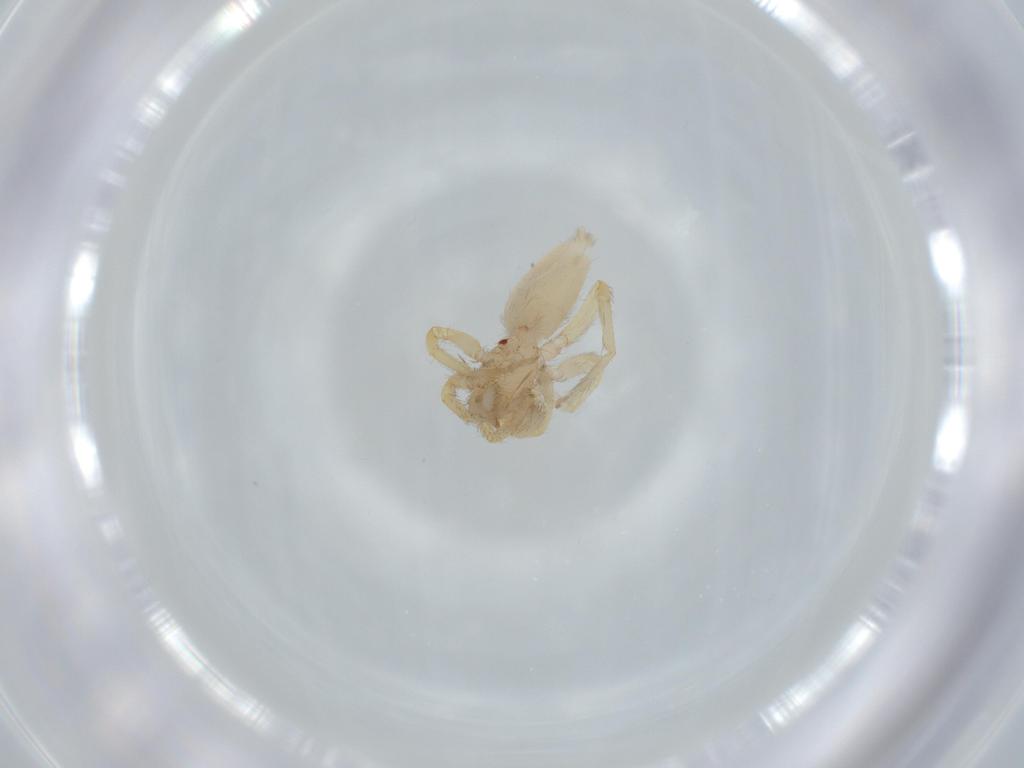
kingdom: Animalia
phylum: Arthropoda
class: Arachnida
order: Araneae
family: Oonopidae
